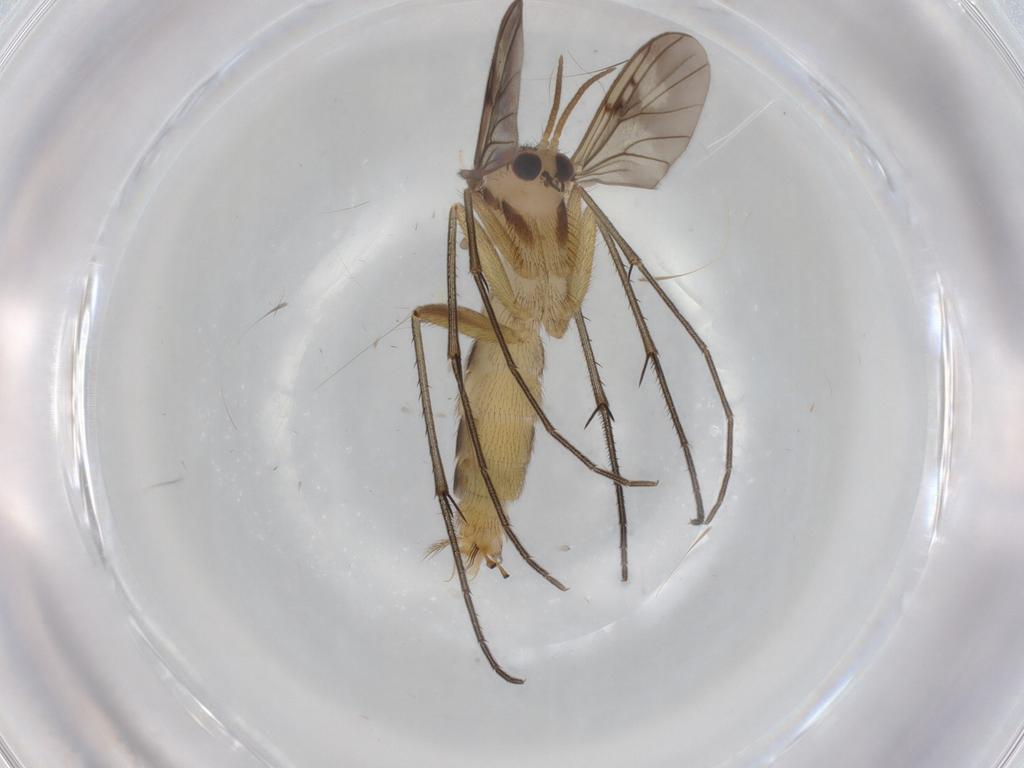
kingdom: Animalia
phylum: Arthropoda
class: Insecta
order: Diptera
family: Mycetophilidae
